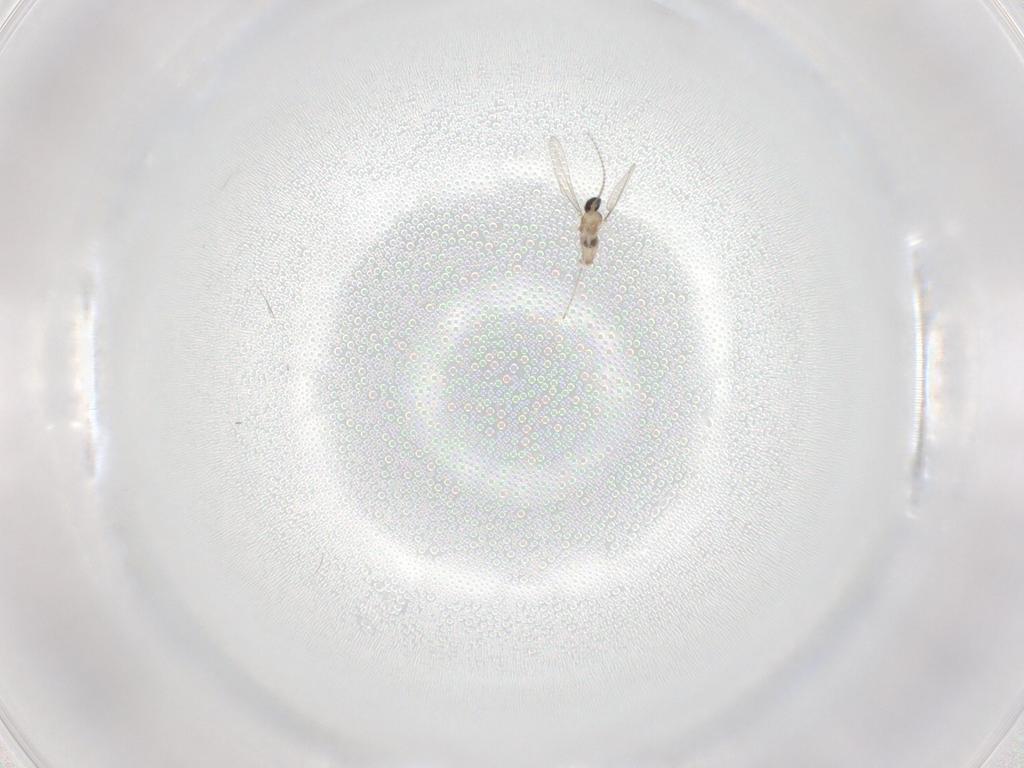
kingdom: Animalia
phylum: Arthropoda
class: Insecta
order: Diptera
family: Cecidomyiidae
